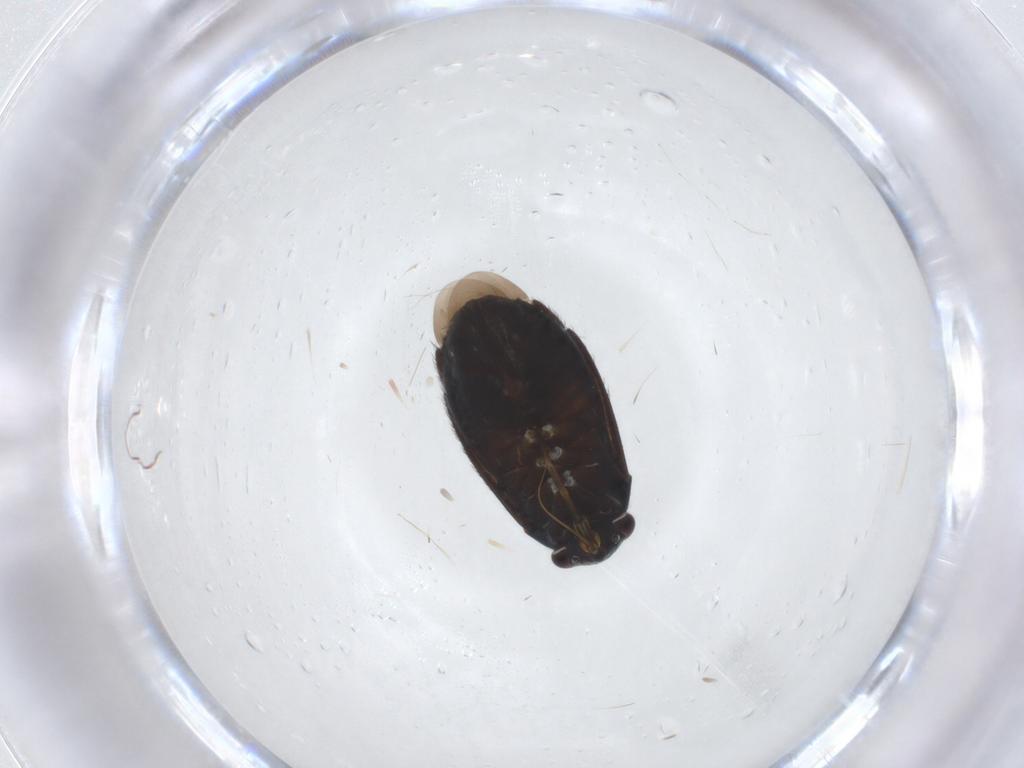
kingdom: Animalia
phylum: Arthropoda
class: Insecta
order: Hemiptera
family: Miridae
